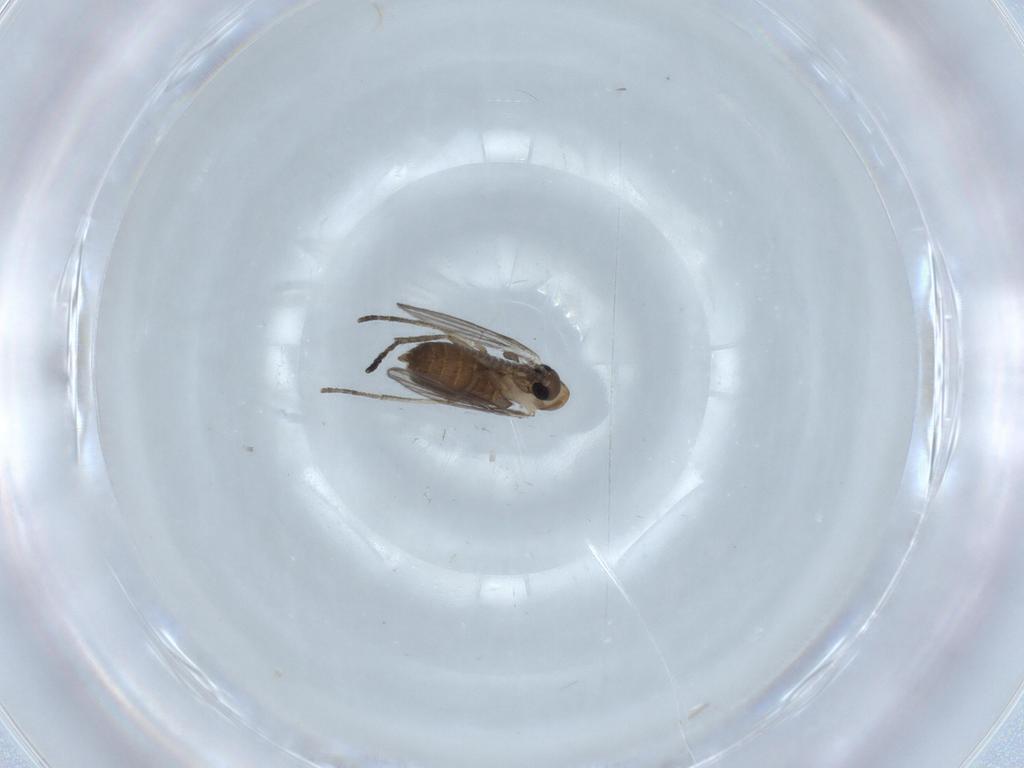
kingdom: Animalia
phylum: Arthropoda
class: Insecta
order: Diptera
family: Psychodidae
